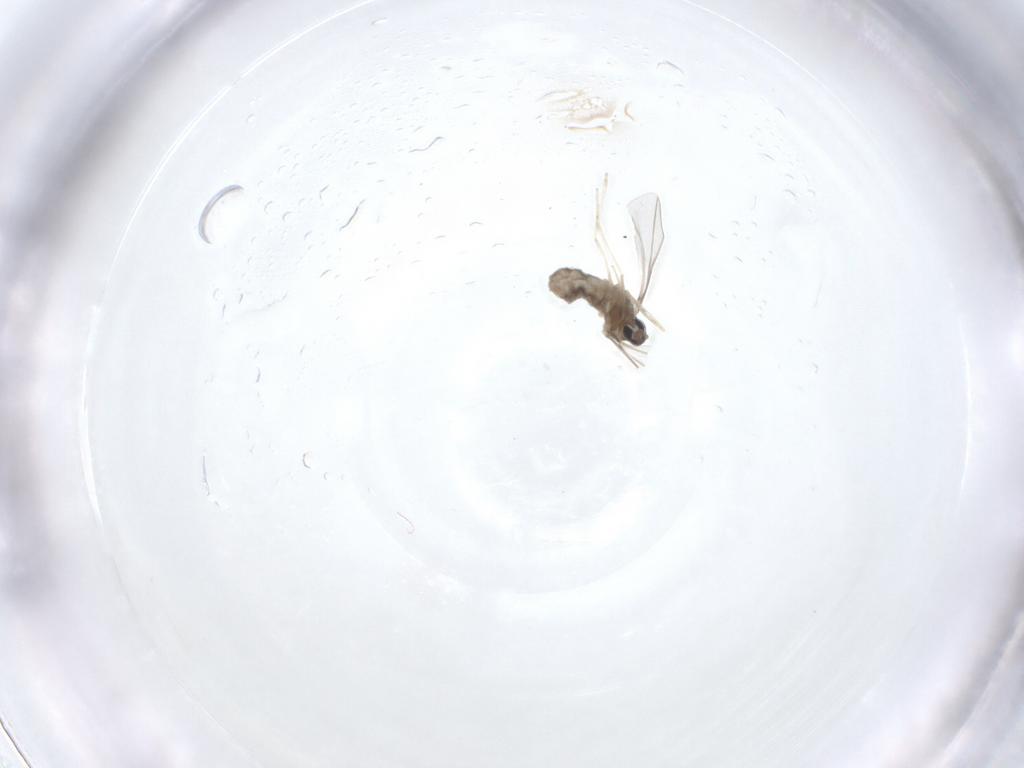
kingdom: Animalia
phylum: Arthropoda
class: Insecta
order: Diptera
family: Cecidomyiidae
